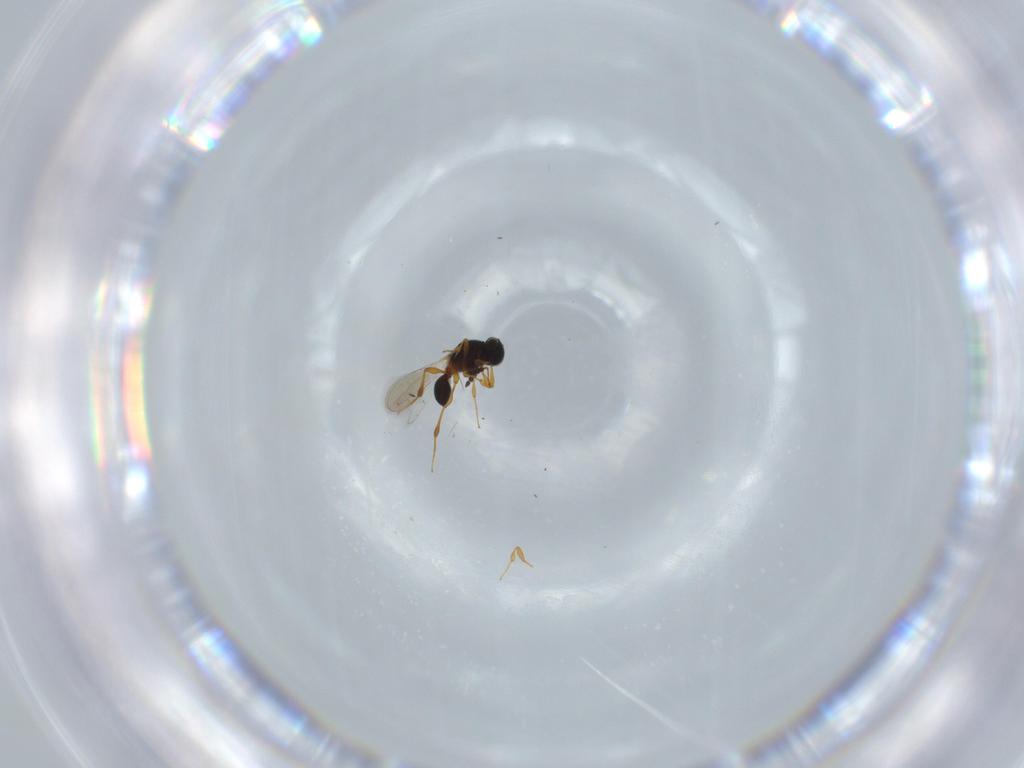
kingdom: Animalia
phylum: Arthropoda
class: Insecta
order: Hymenoptera
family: Platygastridae
